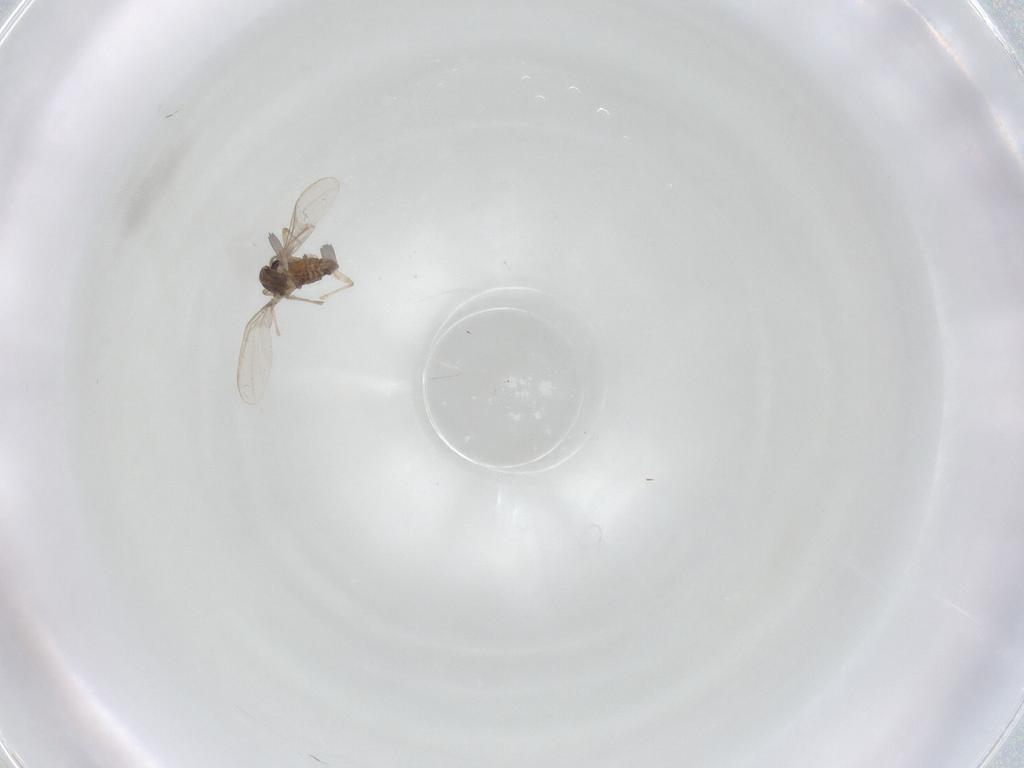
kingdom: Animalia
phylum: Arthropoda
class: Insecta
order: Diptera
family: Chironomidae
